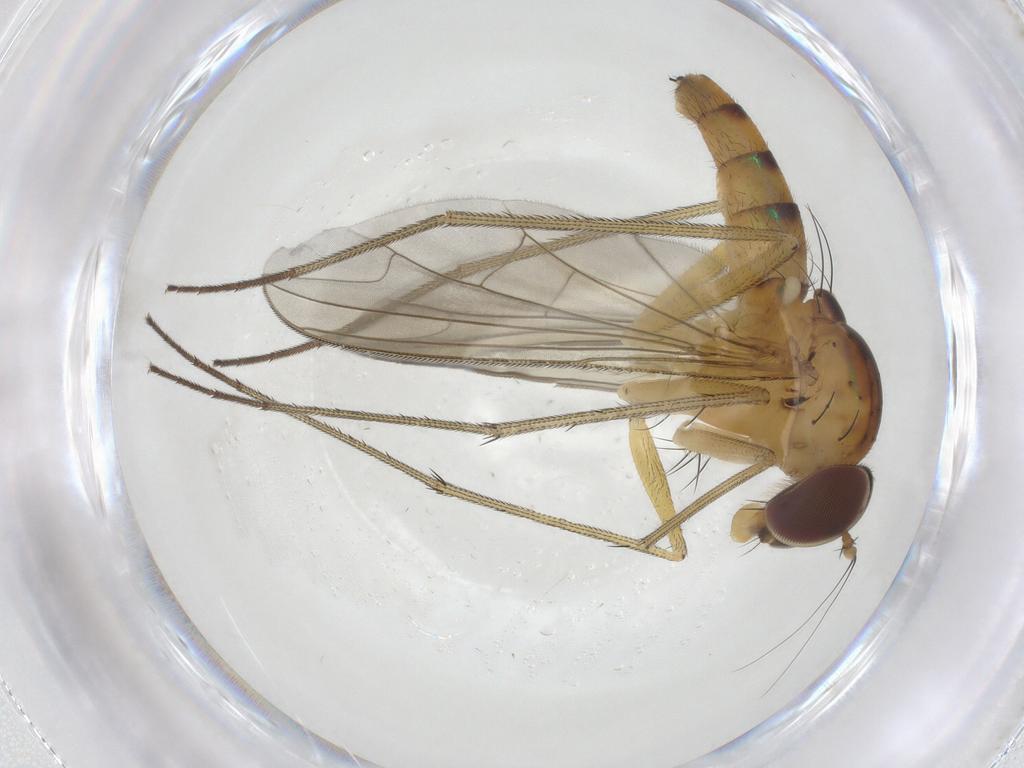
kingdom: Animalia
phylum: Arthropoda
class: Insecta
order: Diptera
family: Dolichopodidae
